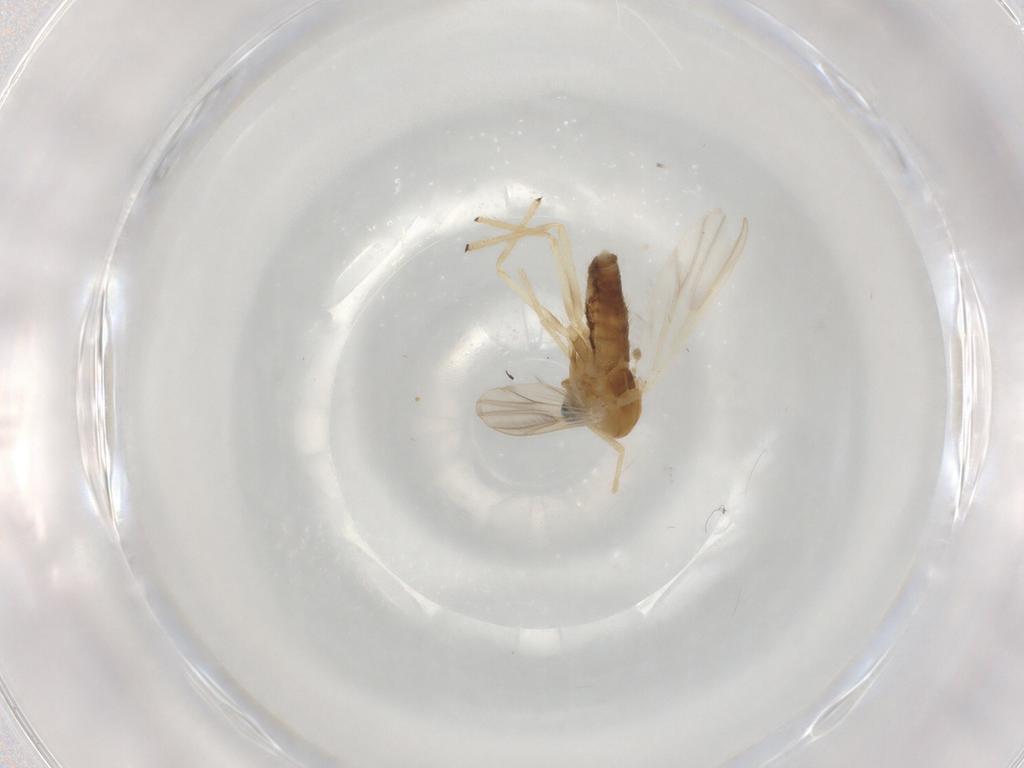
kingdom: Animalia
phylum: Arthropoda
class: Insecta
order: Diptera
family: Chironomidae
